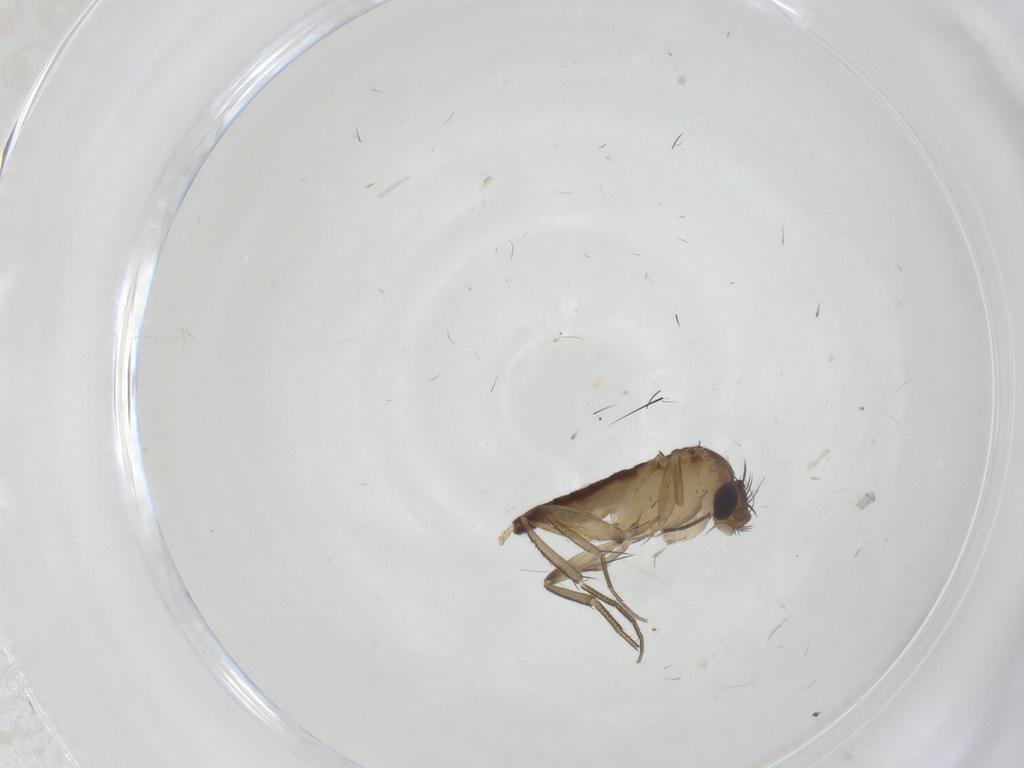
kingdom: Animalia
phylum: Arthropoda
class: Insecta
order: Diptera
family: Phoridae
